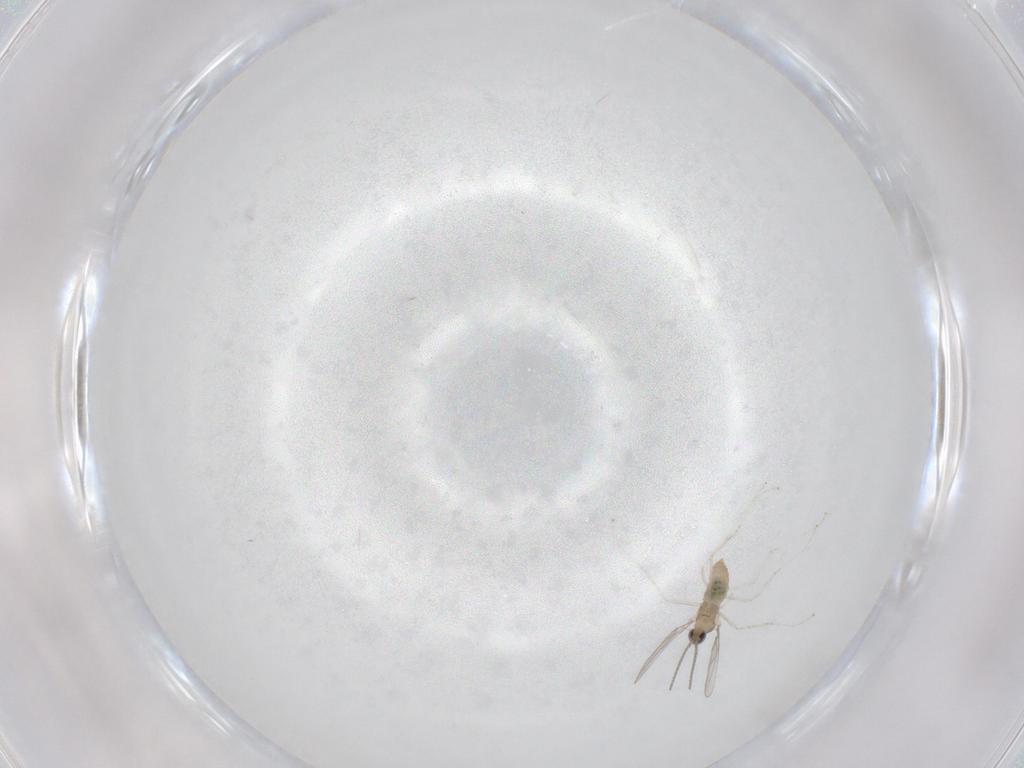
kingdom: Animalia
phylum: Arthropoda
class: Insecta
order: Diptera
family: Cecidomyiidae
